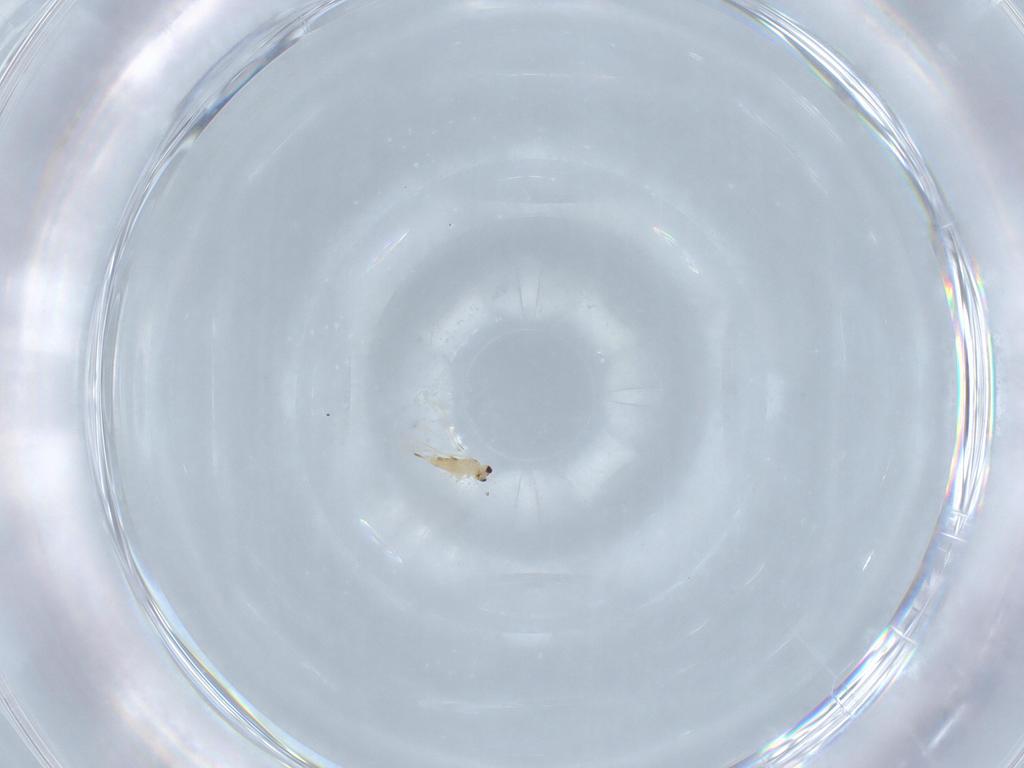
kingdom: Animalia
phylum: Arthropoda
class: Insecta
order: Hymenoptera
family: Mymaridae
